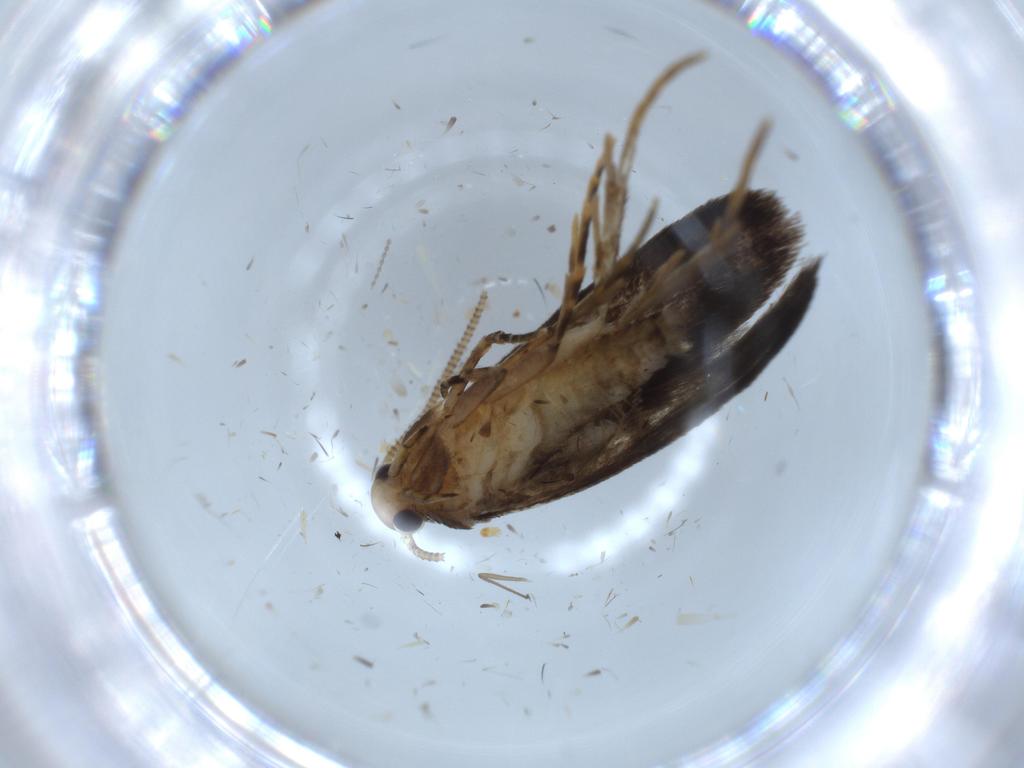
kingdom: Animalia
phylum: Arthropoda
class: Insecta
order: Lepidoptera
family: Tineidae
